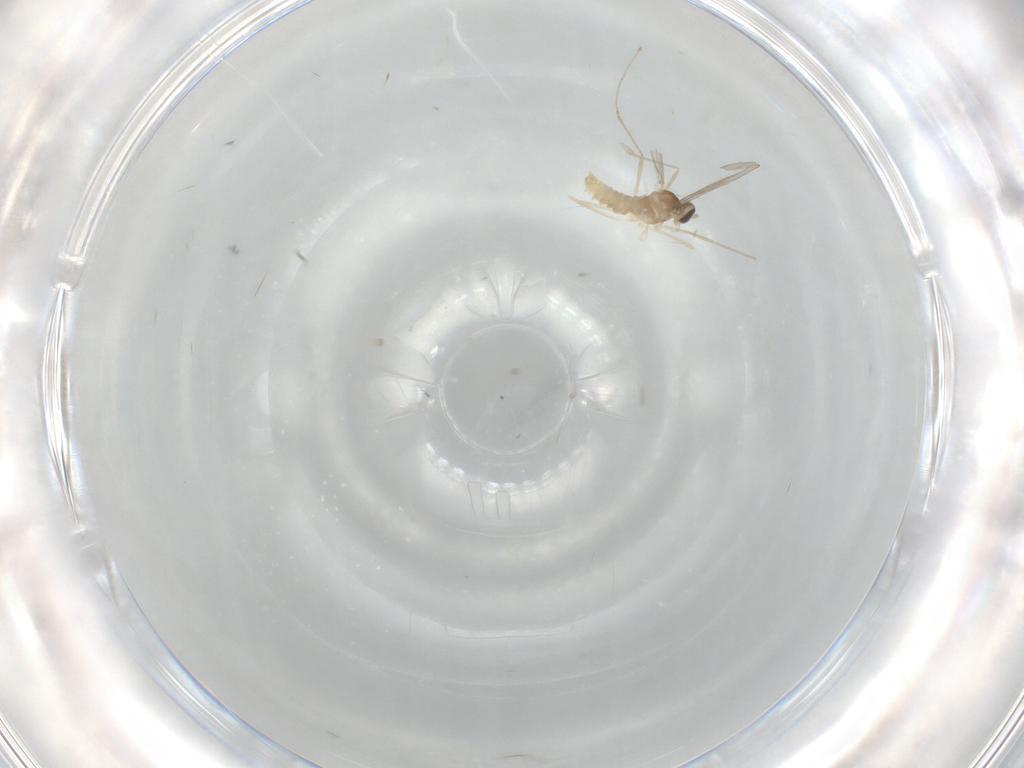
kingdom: Animalia
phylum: Arthropoda
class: Insecta
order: Diptera
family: Cecidomyiidae
